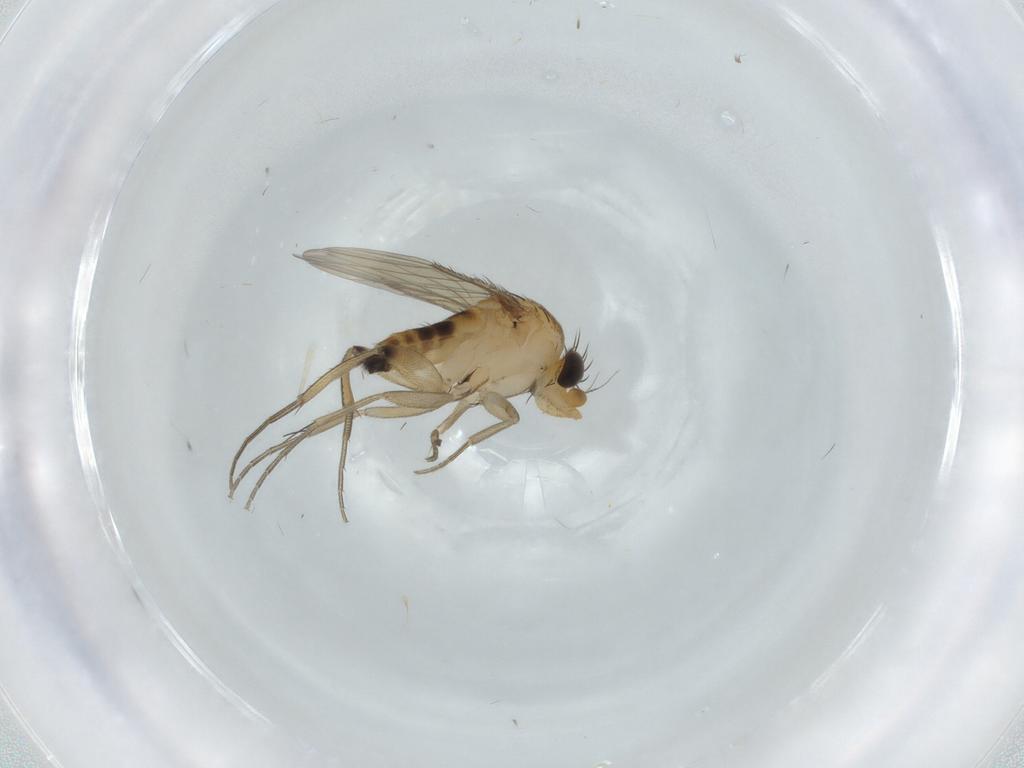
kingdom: Animalia
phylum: Arthropoda
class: Insecta
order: Diptera
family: Phoridae
